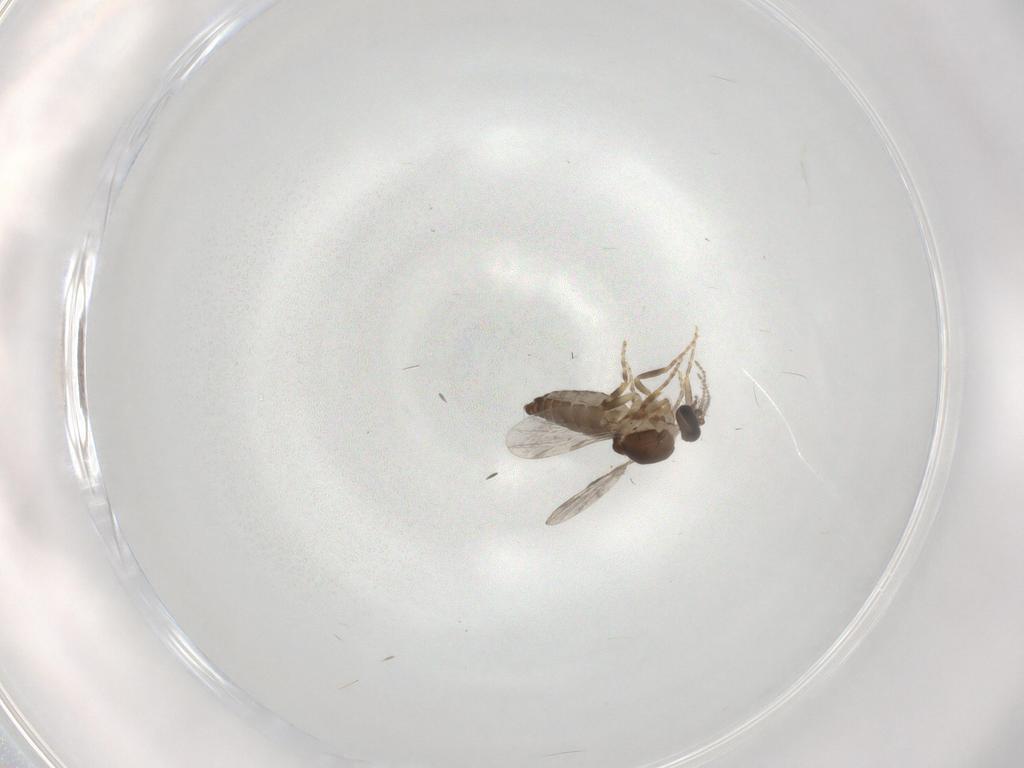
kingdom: Animalia
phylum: Arthropoda
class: Insecta
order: Diptera
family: Ceratopogonidae
